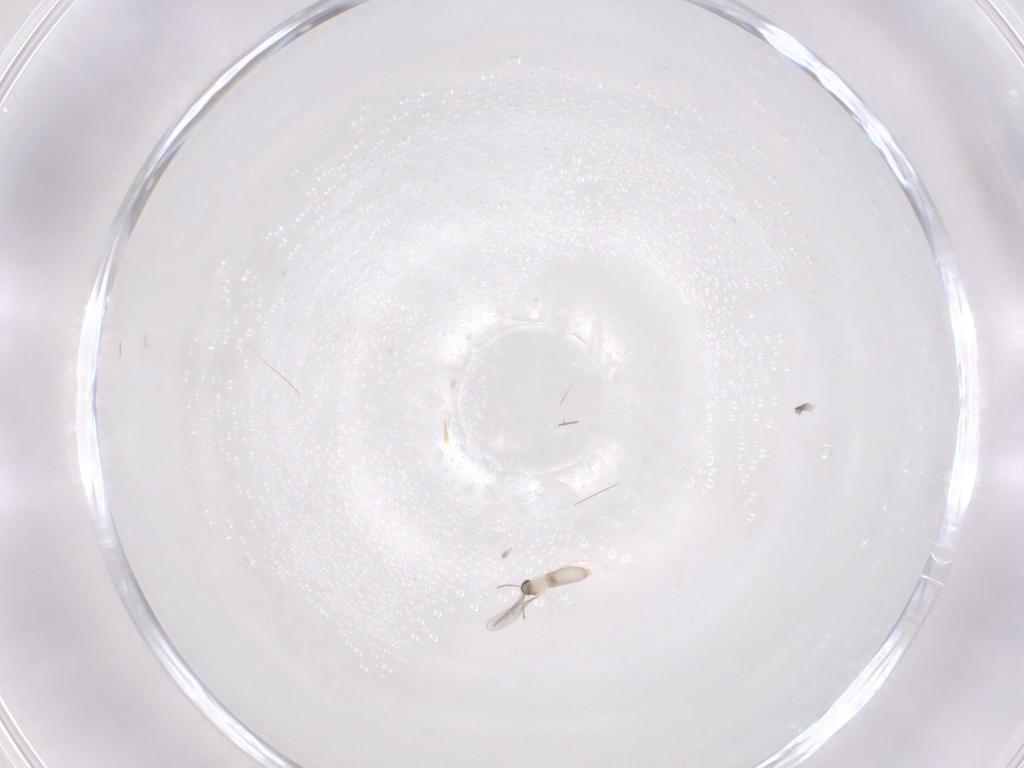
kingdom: Animalia
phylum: Arthropoda
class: Insecta
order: Diptera
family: Cecidomyiidae
